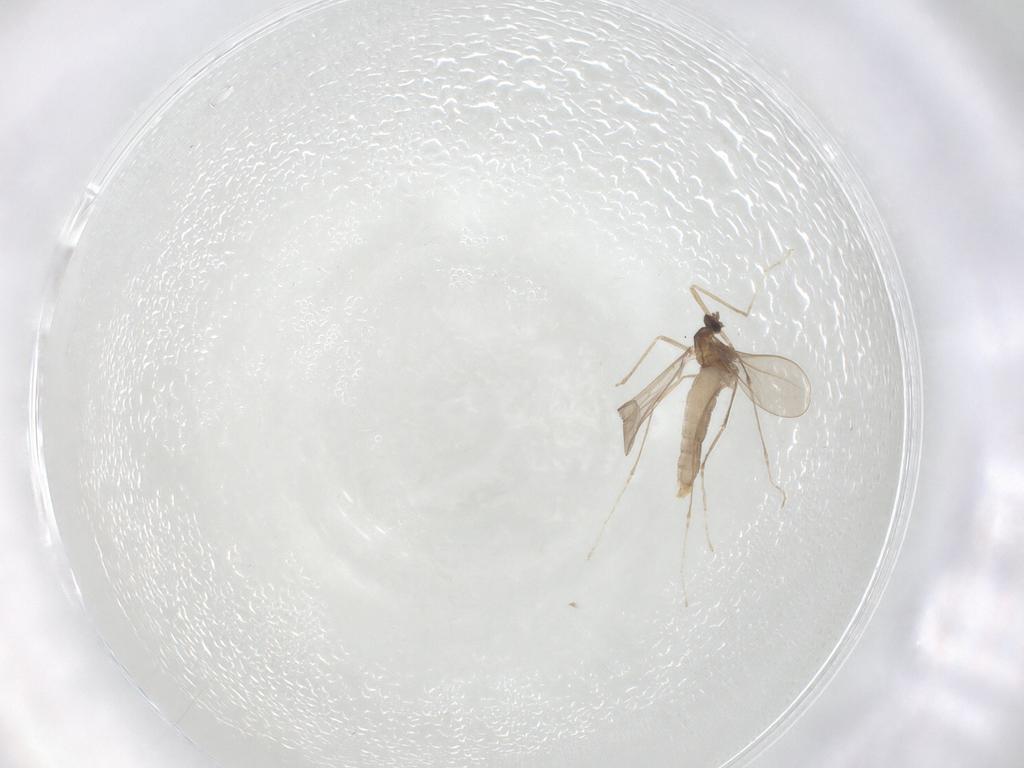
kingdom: Animalia
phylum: Arthropoda
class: Insecta
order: Diptera
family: Cecidomyiidae
